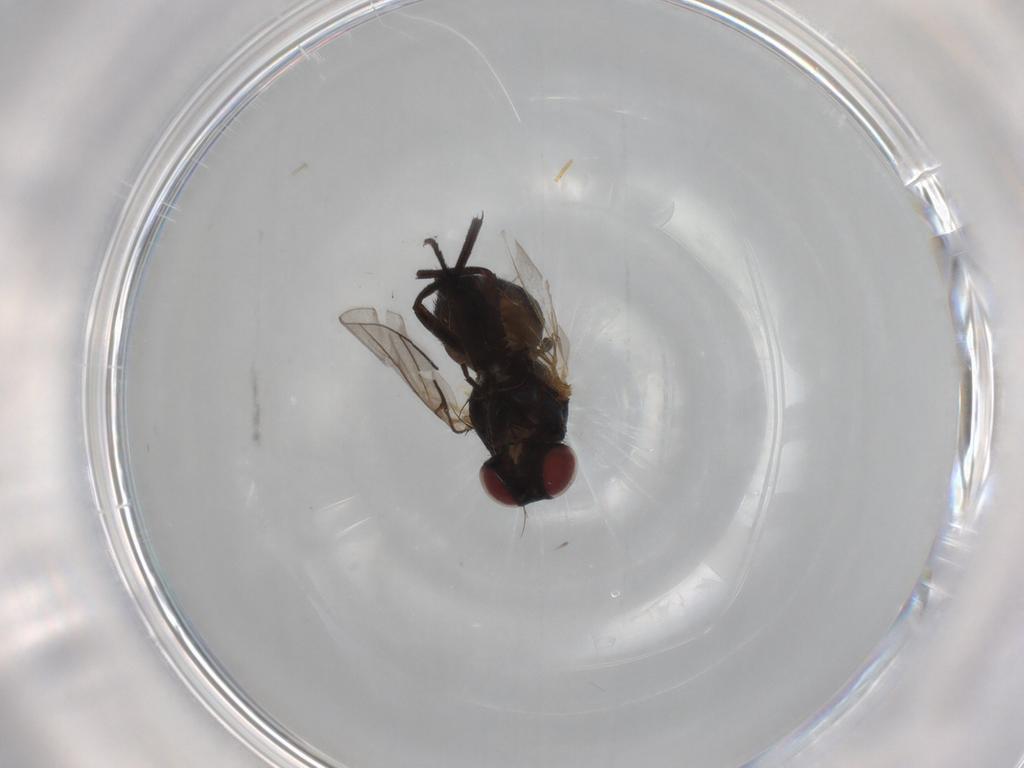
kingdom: Animalia
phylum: Arthropoda
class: Insecta
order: Diptera
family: Agromyzidae
